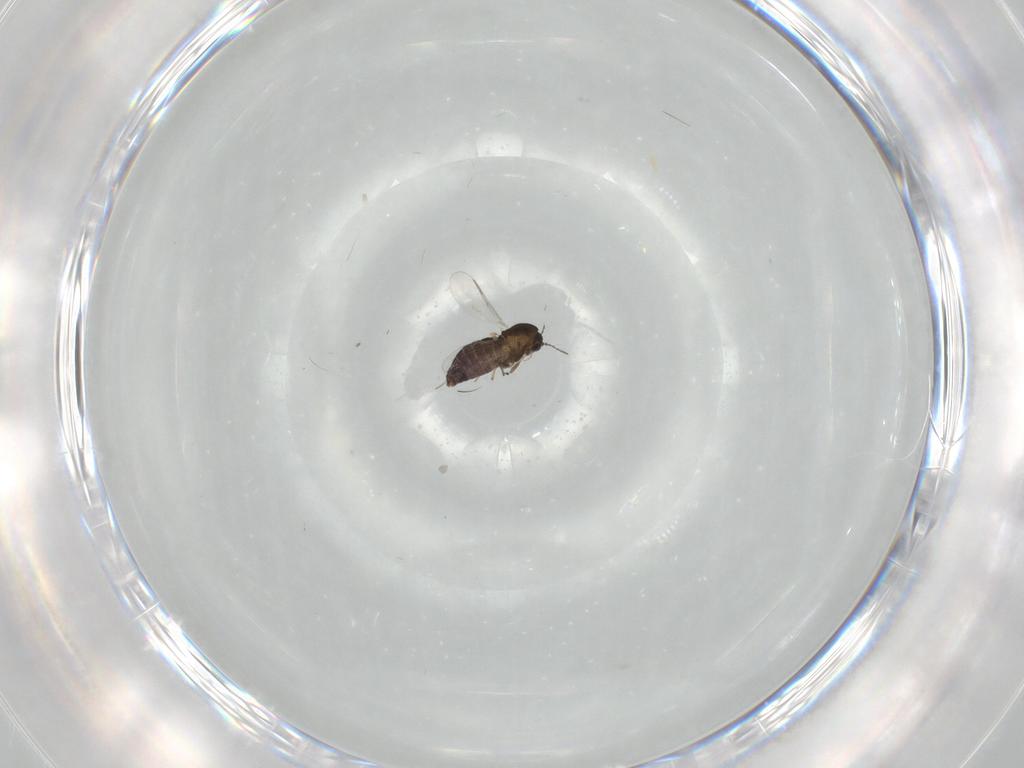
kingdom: Animalia
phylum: Arthropoda
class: Insecta
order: Diptera
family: Chironomidae
